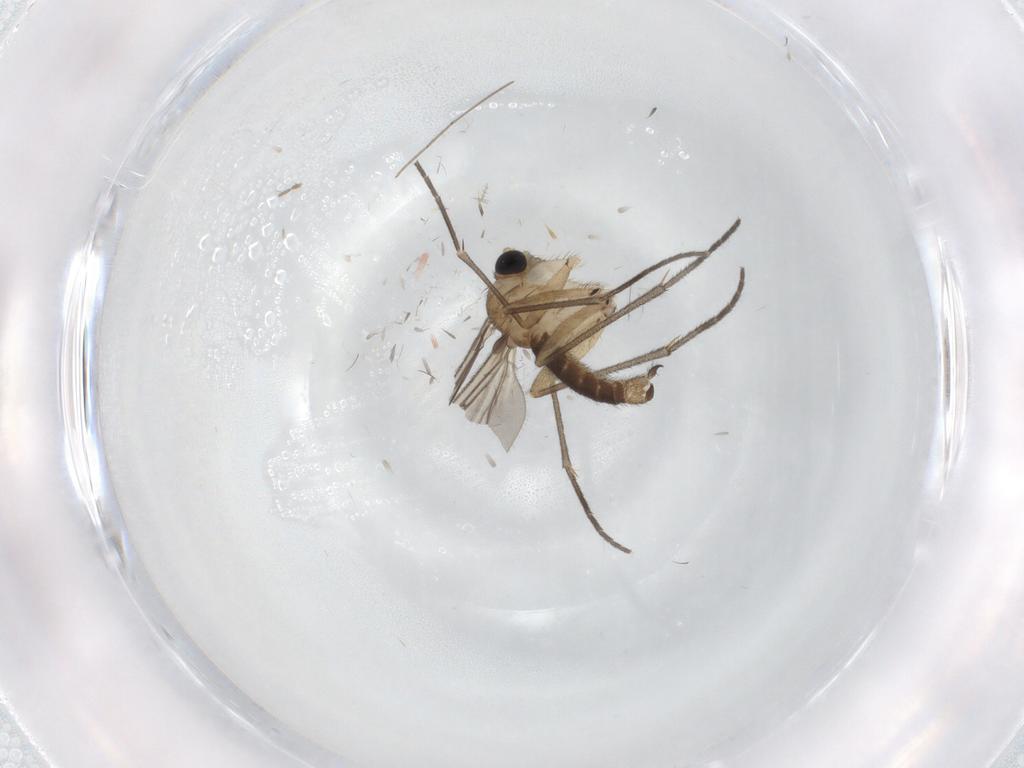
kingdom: Animalia
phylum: Arthropoda
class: Insecta
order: Diptera
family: Sciaridae
